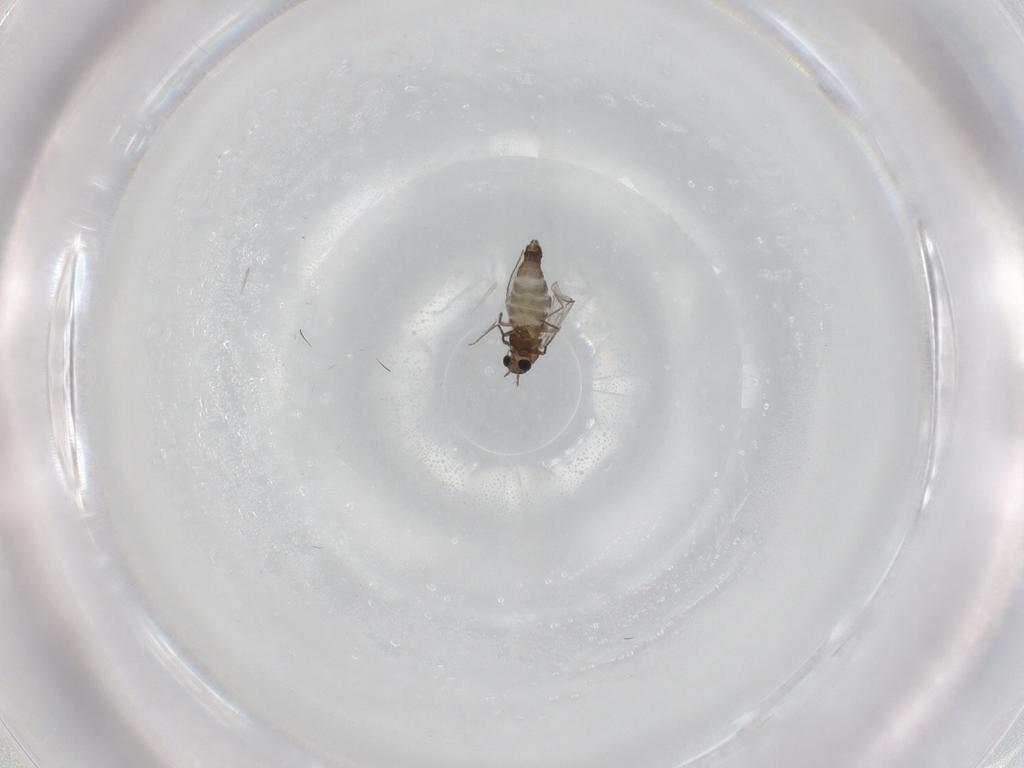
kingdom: Animalia
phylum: Arthropoda
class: Insecta
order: Diptera
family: Chironomidae
